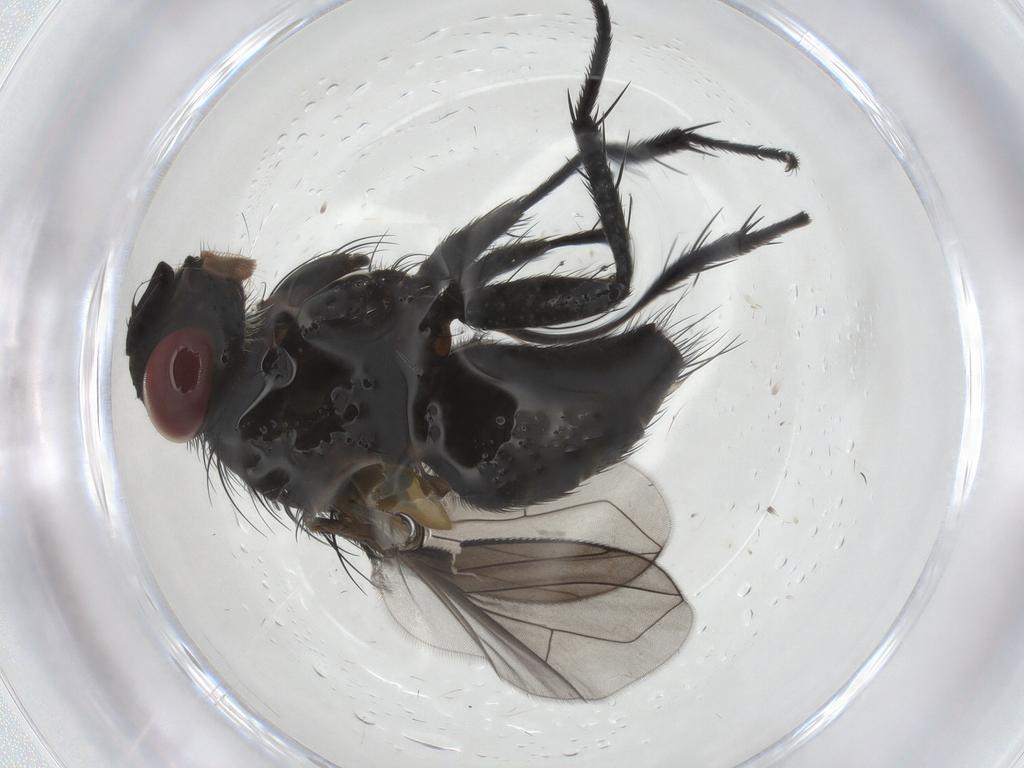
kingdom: Animalia
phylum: Arthropoda
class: Insecta
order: Diptera
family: Tachinidae
